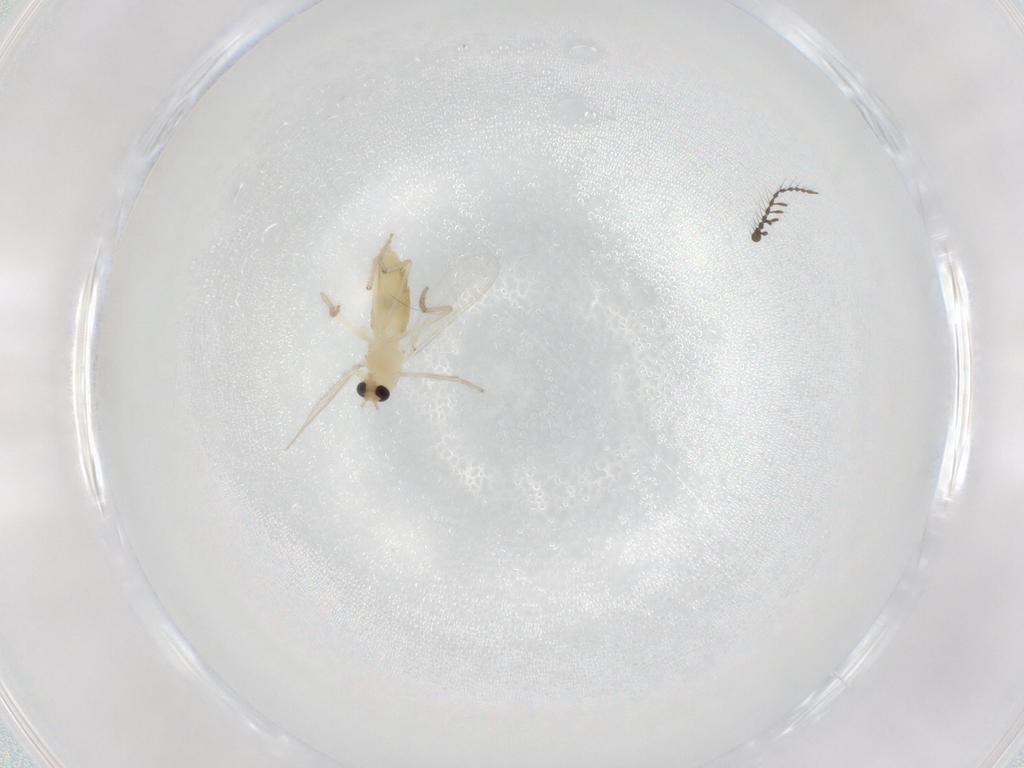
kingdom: Animalia
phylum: Arthropoda
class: Insecta
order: Diptera
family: Chironomidae
